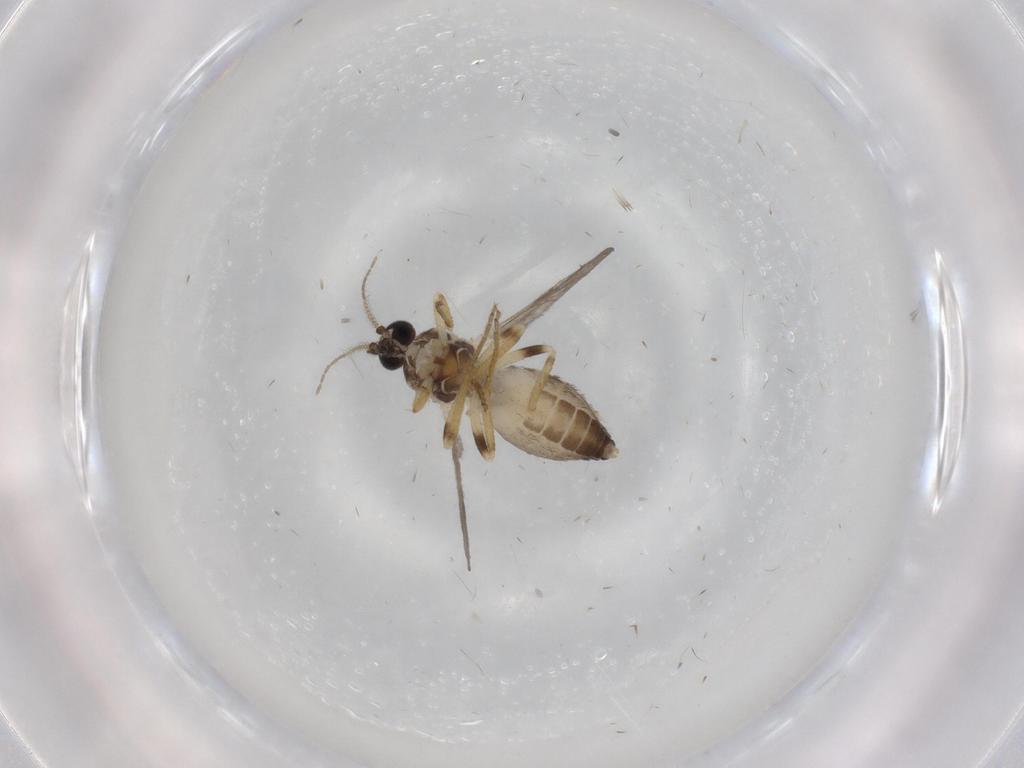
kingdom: Animalia
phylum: Arthropoda
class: Insecta
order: Diptera
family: Ceratopogonidae
